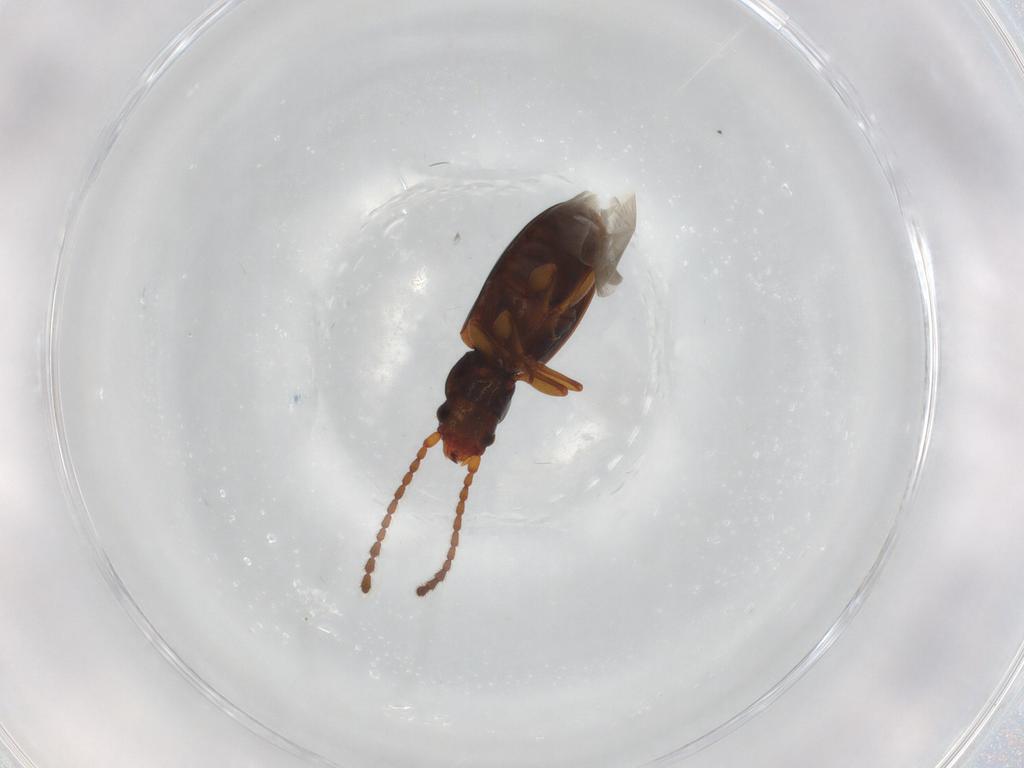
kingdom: Animalia
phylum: Arthropoda
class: Insecta
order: Coleoptera
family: Laemophloeidae
